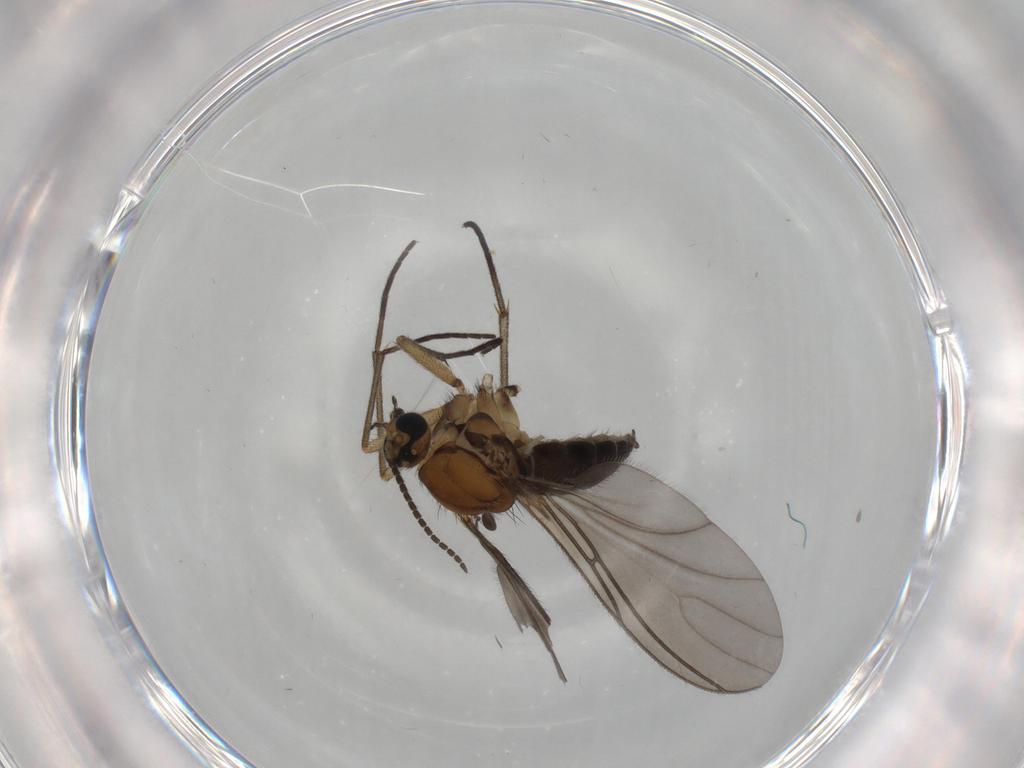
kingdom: Animalia
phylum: Arthropoda
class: Insecta
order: Diptera
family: Sciaridae
